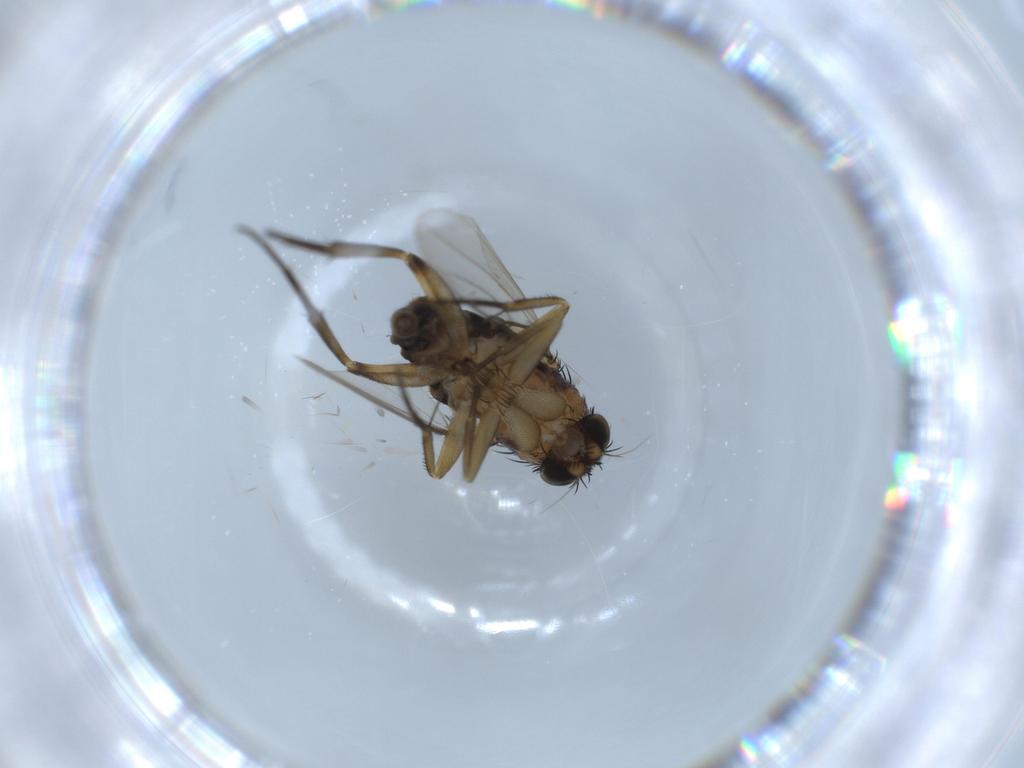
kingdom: Animalia
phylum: Arthropoda
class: Insecta
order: Diptera
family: Phoridae
